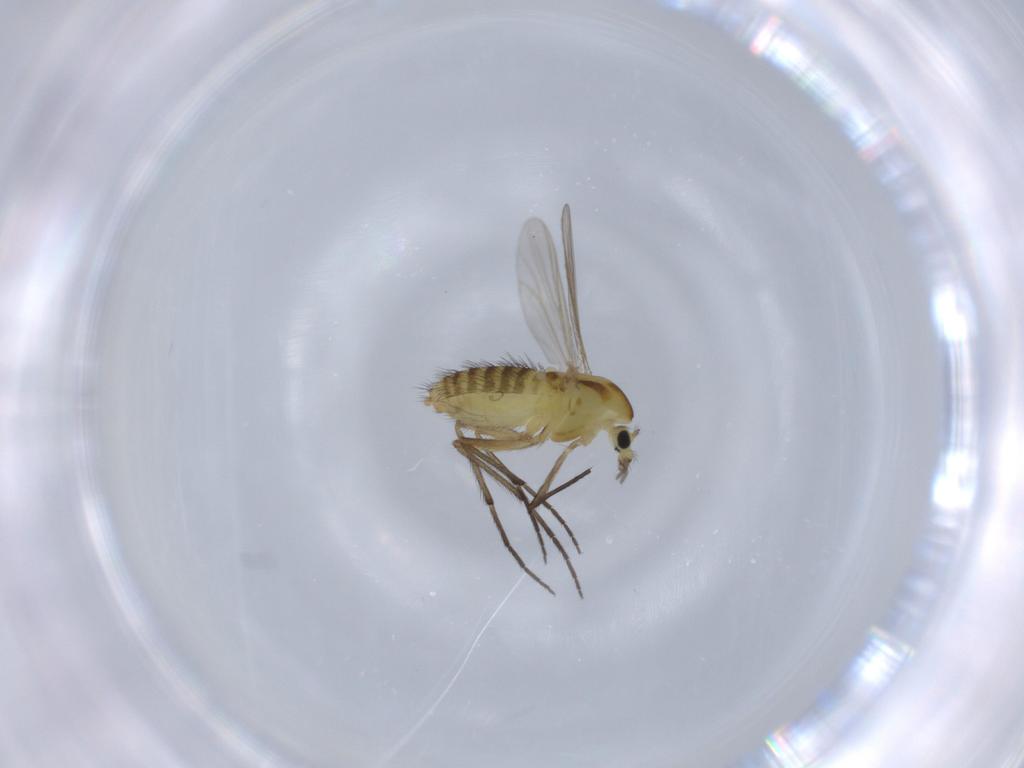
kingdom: Animalia
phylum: Arthropoda
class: Insecta
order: Diptera
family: Chironomidae
